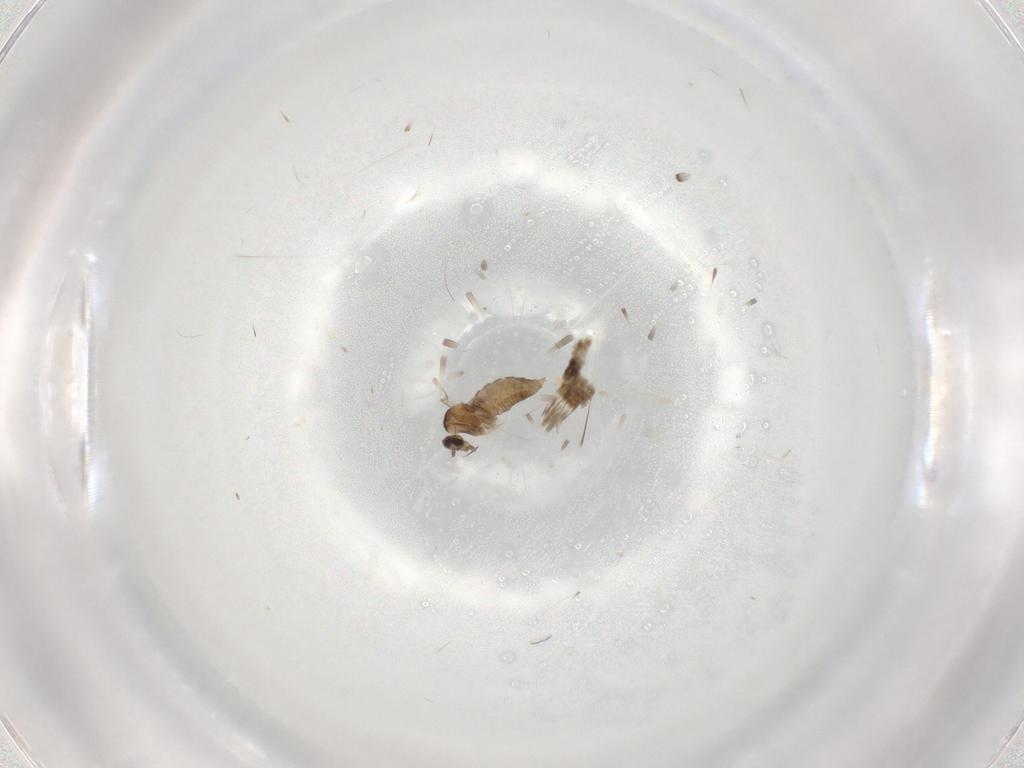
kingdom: Animalia
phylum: Arthropoda
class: Insecta
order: Diptera
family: Cecidomyiidae
